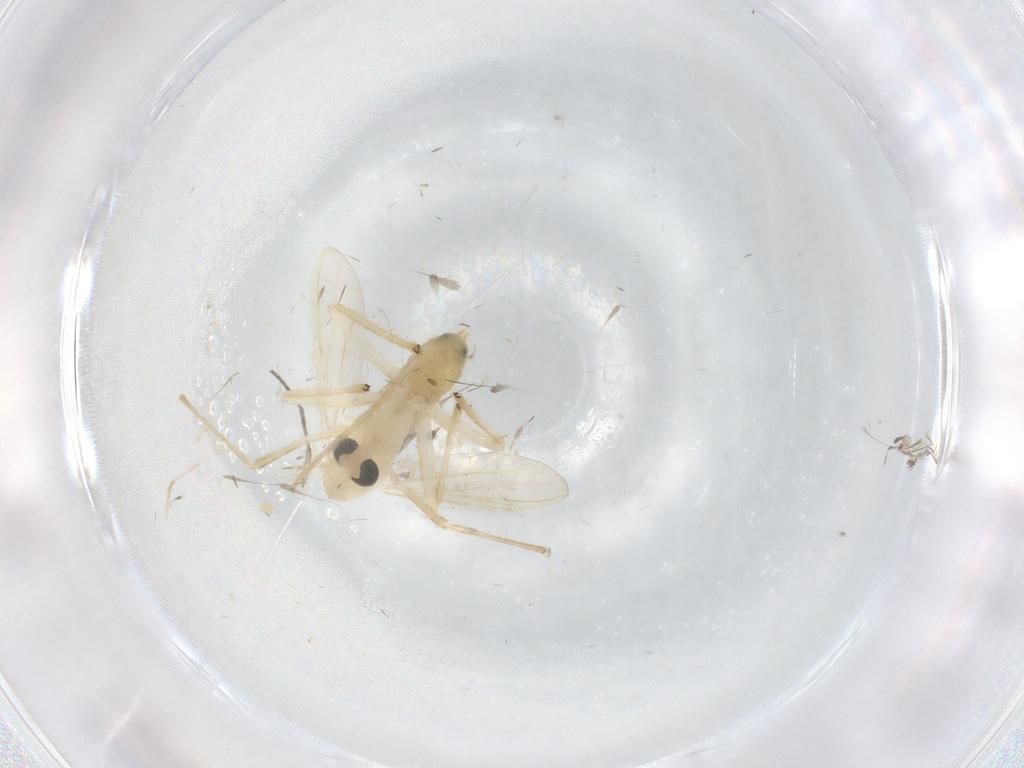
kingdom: Animalia
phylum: Arthropoda
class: Insecta
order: Diptera
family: Chironomidae
